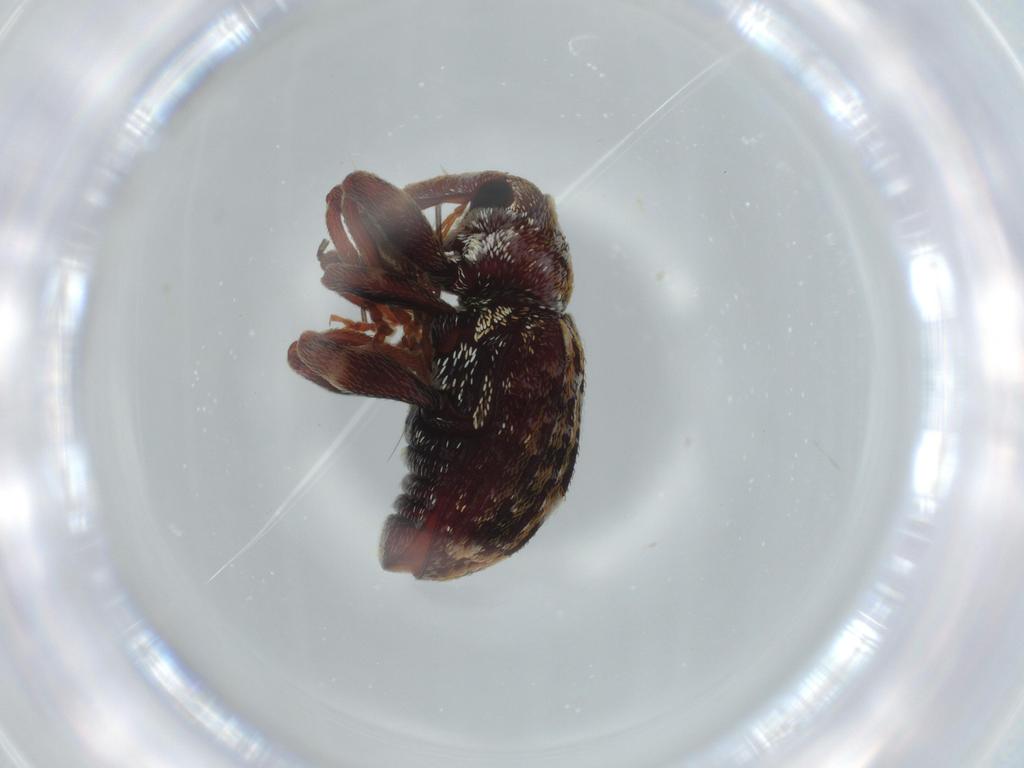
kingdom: Animalia
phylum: Arthropoda
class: Insecta
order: Coleoptera
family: Curculionidae
